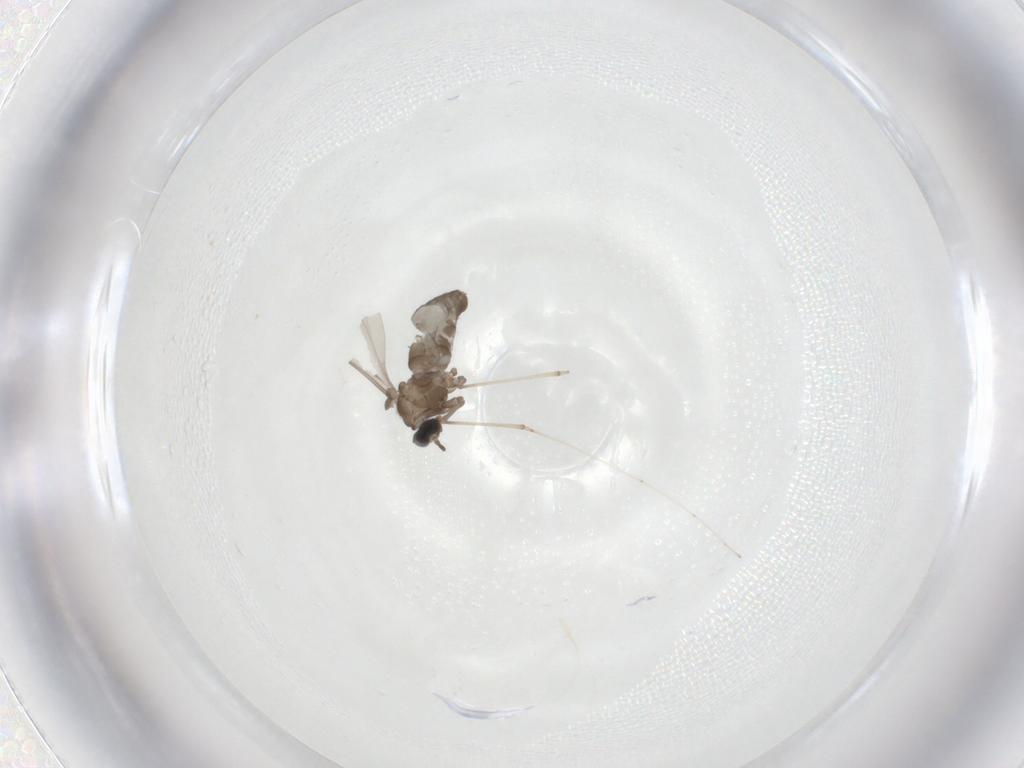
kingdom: Animalia
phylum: Arthropoda
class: Insecta
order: Diptera
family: Cecidomyiidae
